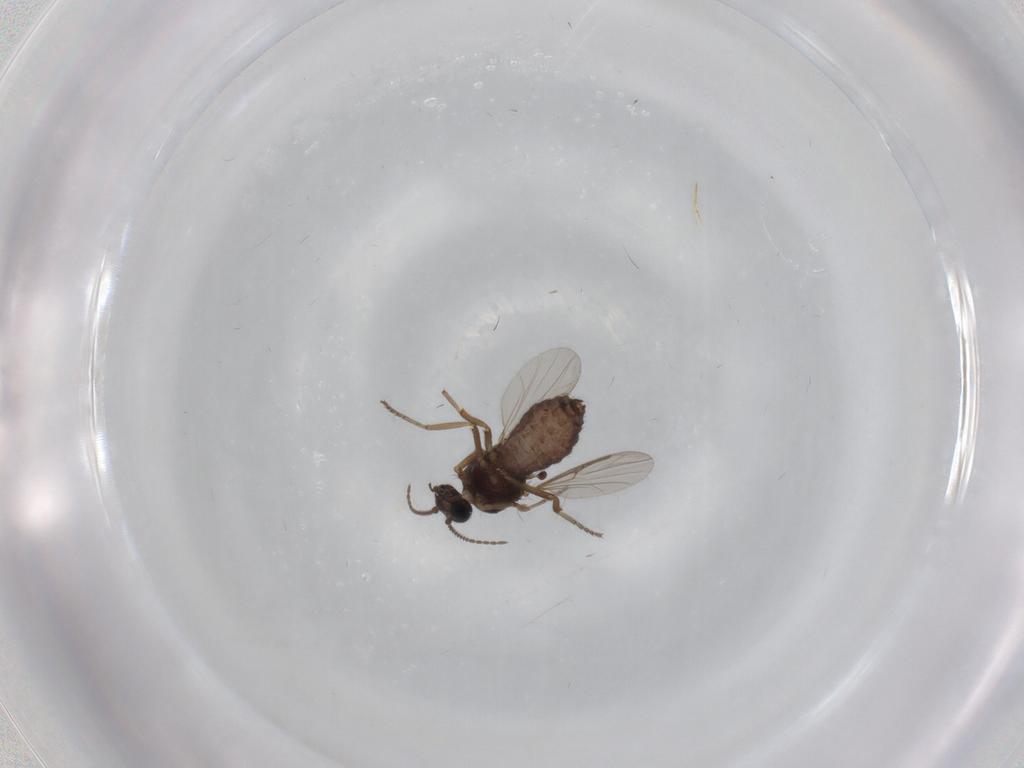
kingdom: Animalia
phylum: Arthropoda
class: Insecta
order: Diptera
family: Ceratopogonidae
